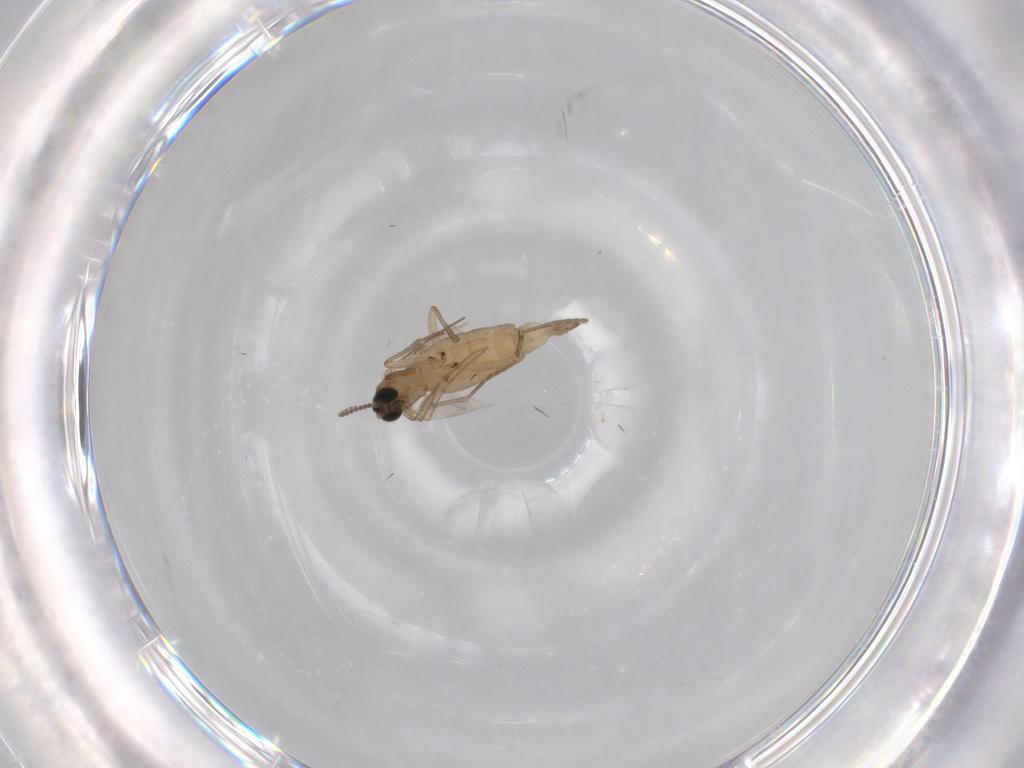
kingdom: Animalia
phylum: Arthropoda
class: Insecta
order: Diptera
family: Sciaridae
